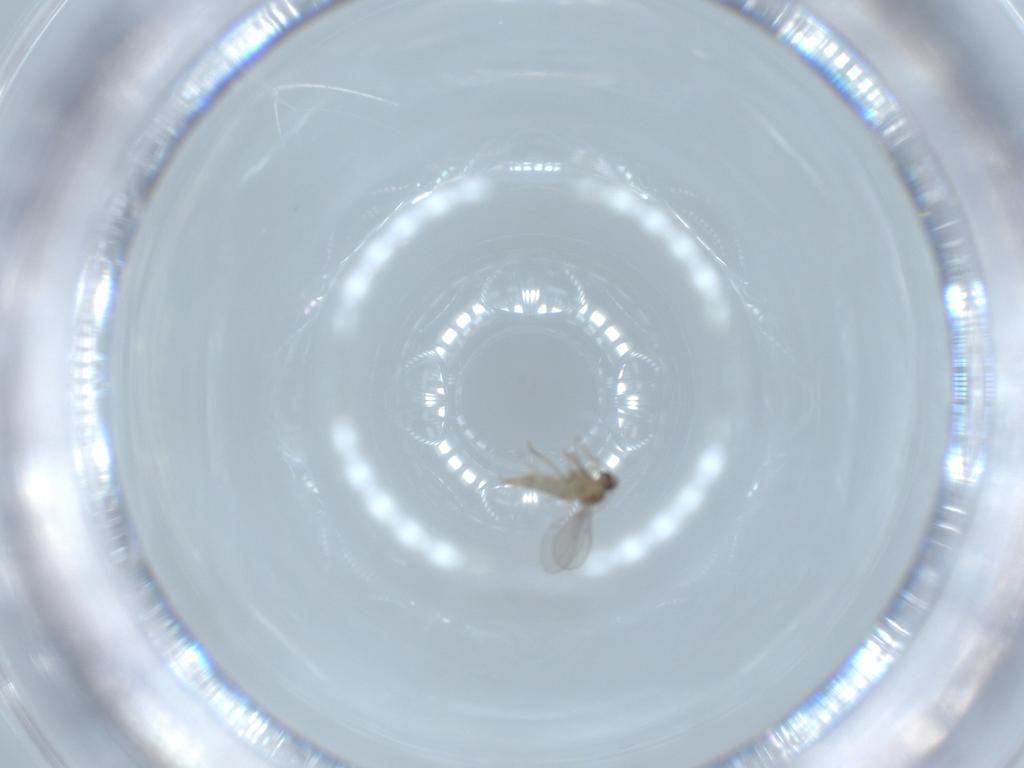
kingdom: Animalia
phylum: Arthropoda
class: Insecta
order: Diptera
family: Cecidomyiidae
